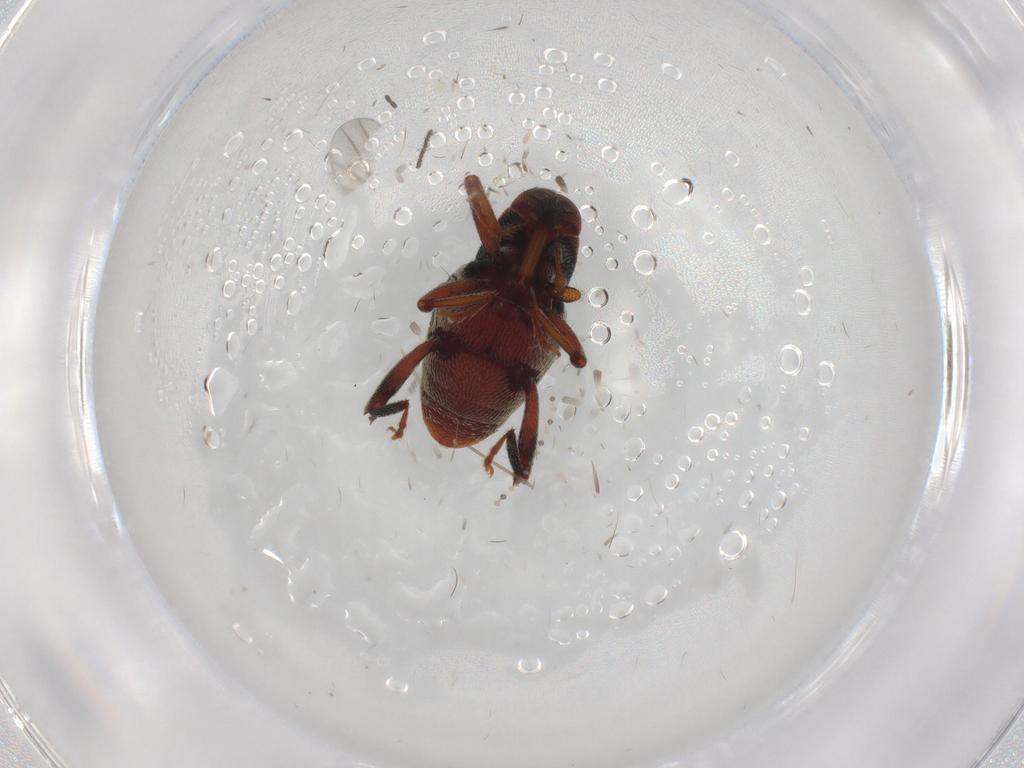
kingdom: Animalia
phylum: Arthropoda
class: Insecta
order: Coleoptera
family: Curculionidae
